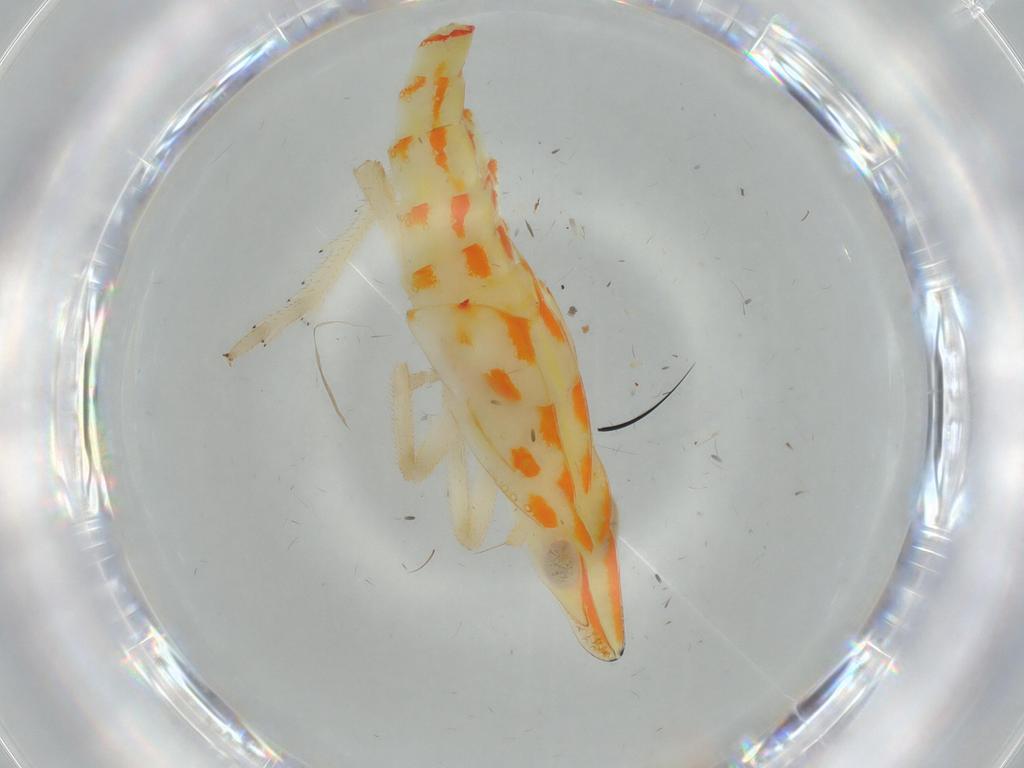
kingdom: Animalia
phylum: Arthropoda
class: Insecta
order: Hemiptera
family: Tropiduchidae
